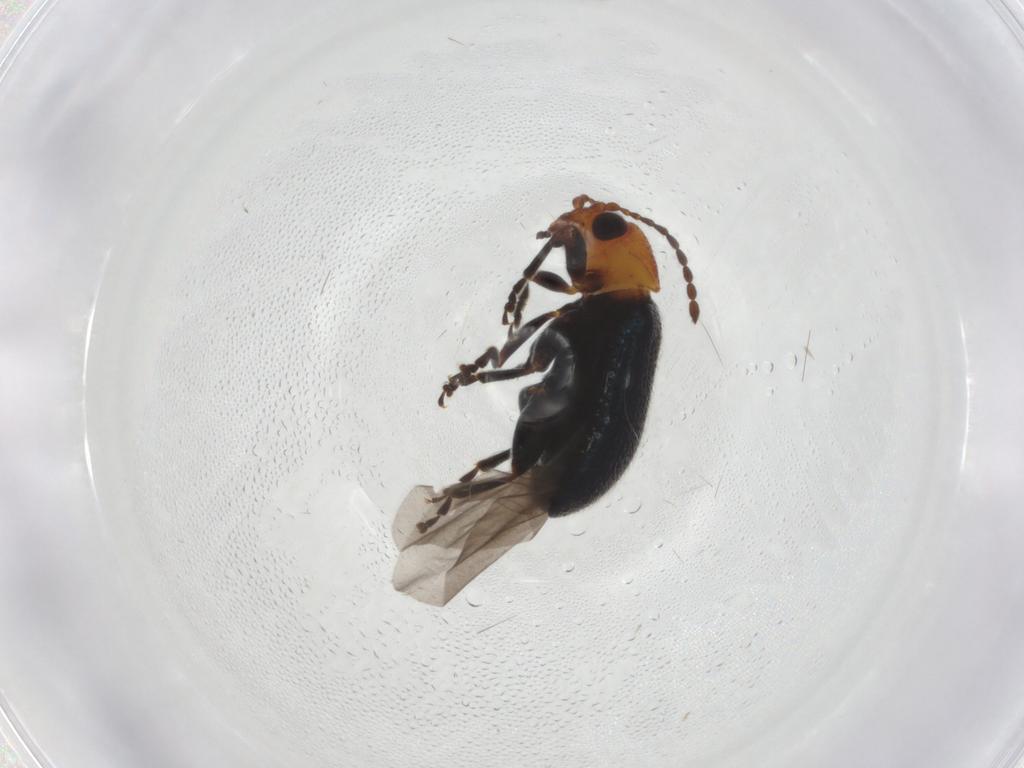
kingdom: Animalia
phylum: Arthropoda
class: Insecta
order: Coleoptera
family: Chrysomelidae
